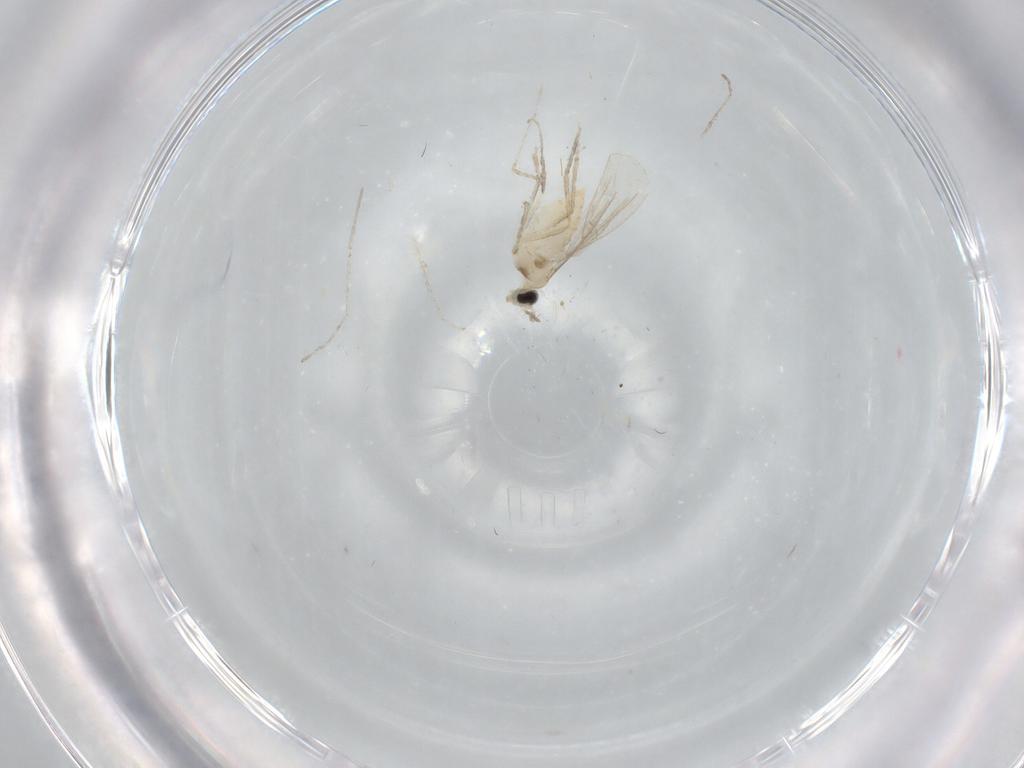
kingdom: Animalia
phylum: Arthropoda
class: Insecta
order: Diptera
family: Cecidomyiidae
